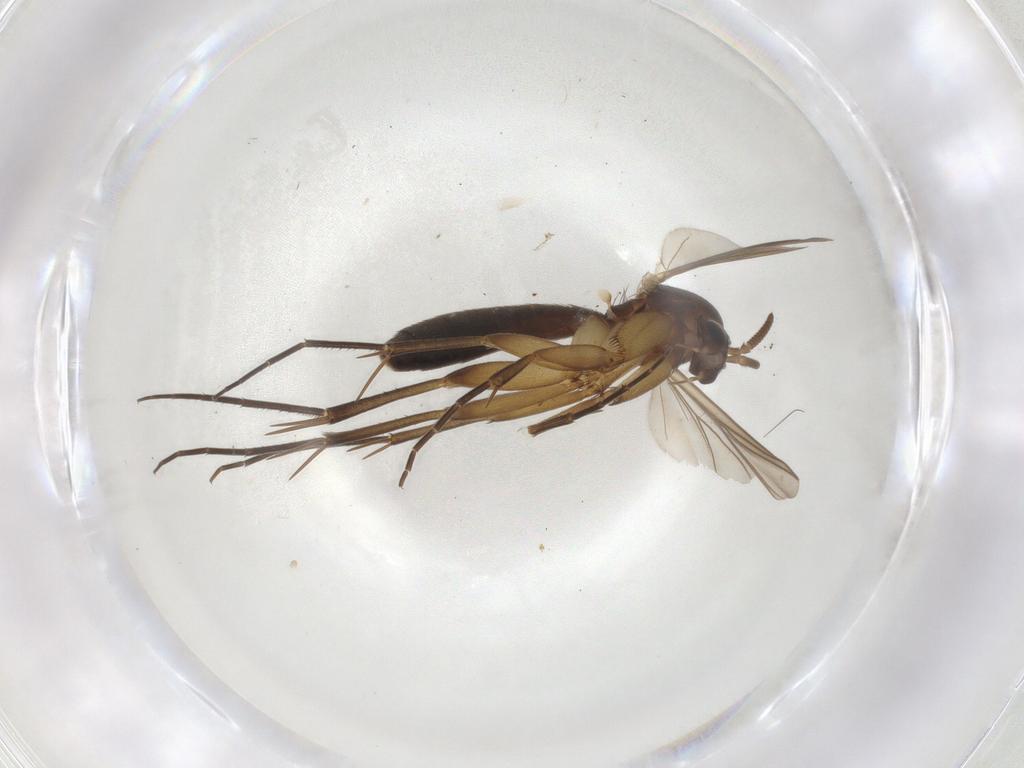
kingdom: Animalia
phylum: Arthropoda
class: Insecta
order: Diptera
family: Mycetophilidae
